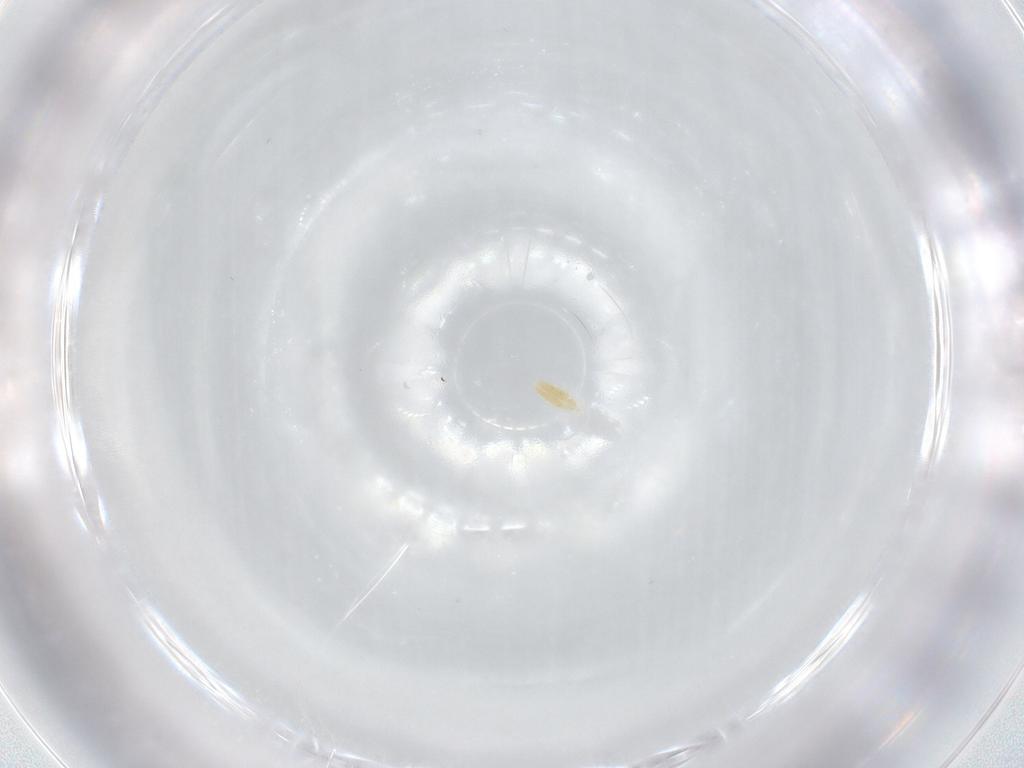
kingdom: Animalia
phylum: Arthropoda
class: Arachnida
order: Trombidiformes
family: Eupodidae
